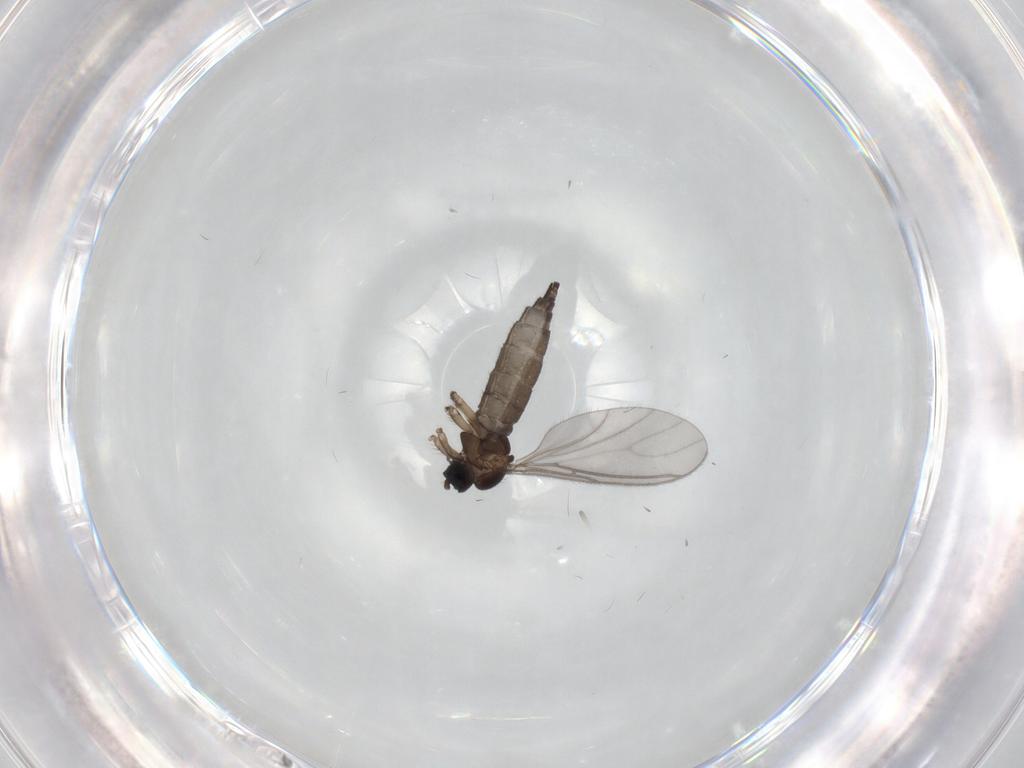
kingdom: Animalia
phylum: Arthropoda
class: Insecta
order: Diptera
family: Sciaridae
